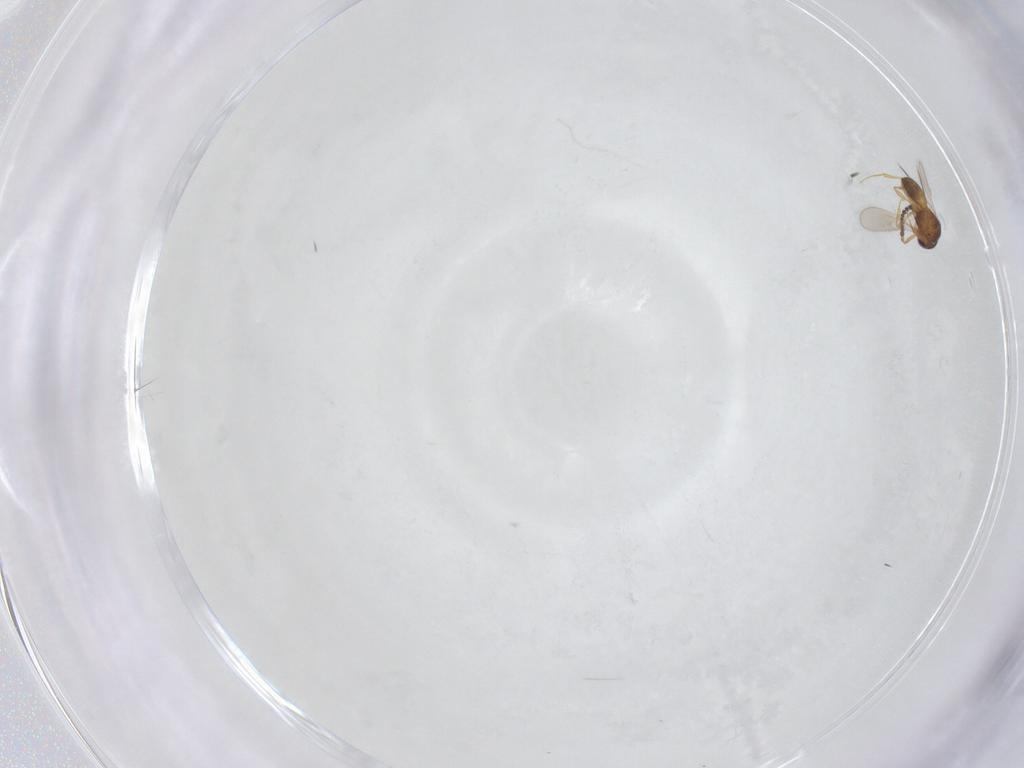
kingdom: Animalia
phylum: Arthropoda
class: Insecta
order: Hymenoptera
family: Scelionidae
